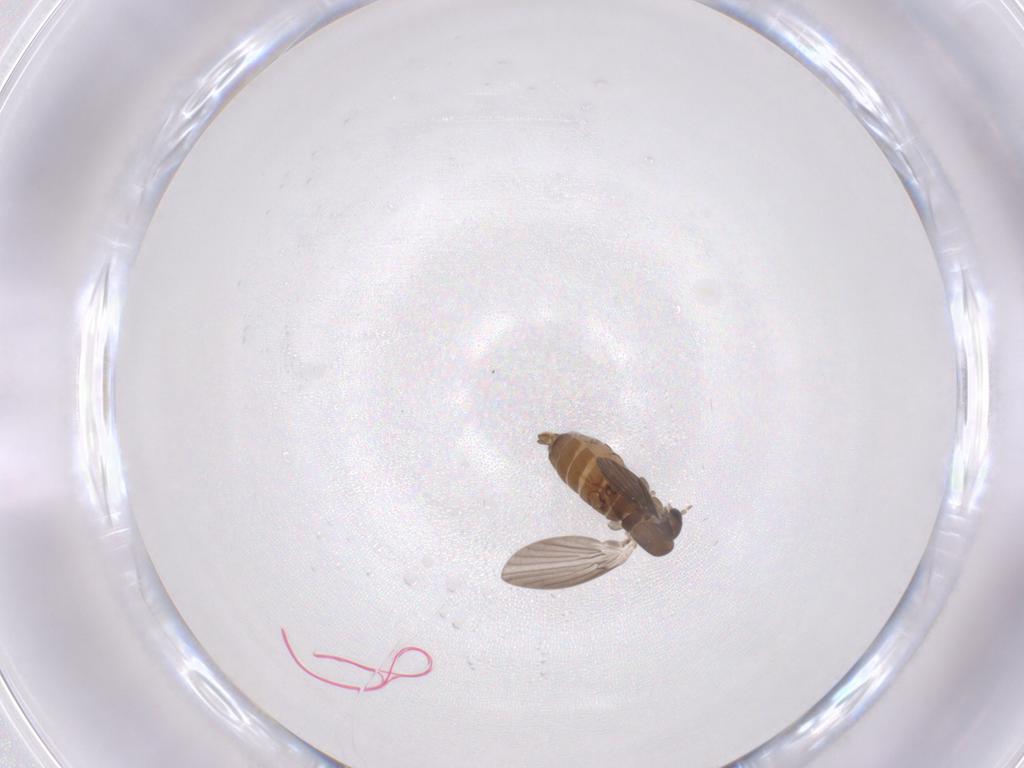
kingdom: Animalia
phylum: Arthropoda
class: Insecta
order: Diptera
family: Psychodidae
